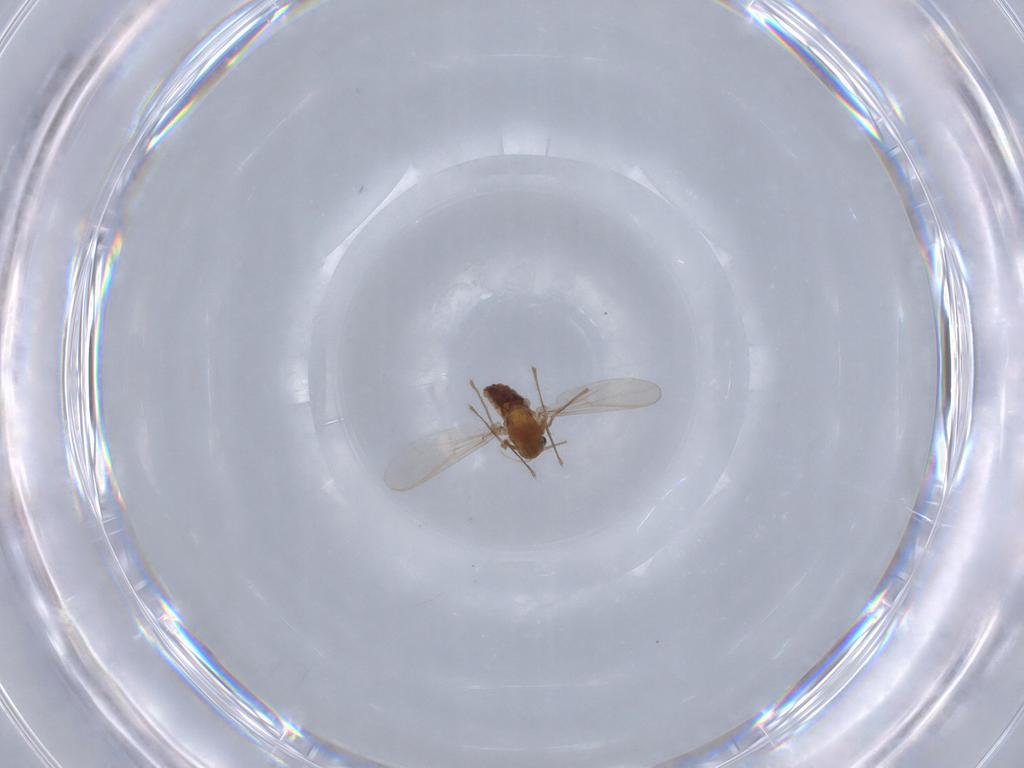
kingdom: Animalia
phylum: Arthropoda
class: Insecta
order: Diptera
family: Chironomidae
